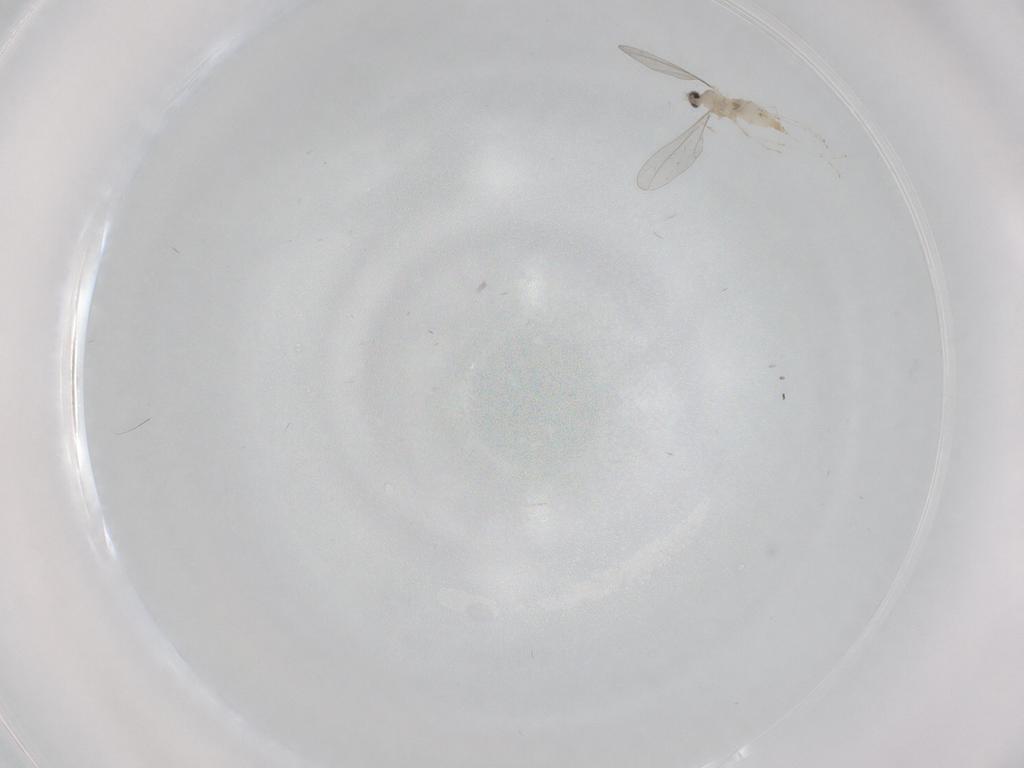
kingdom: Animalia
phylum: Arthropoda
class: Insecta
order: Diptera
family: Cecidomyiidae
